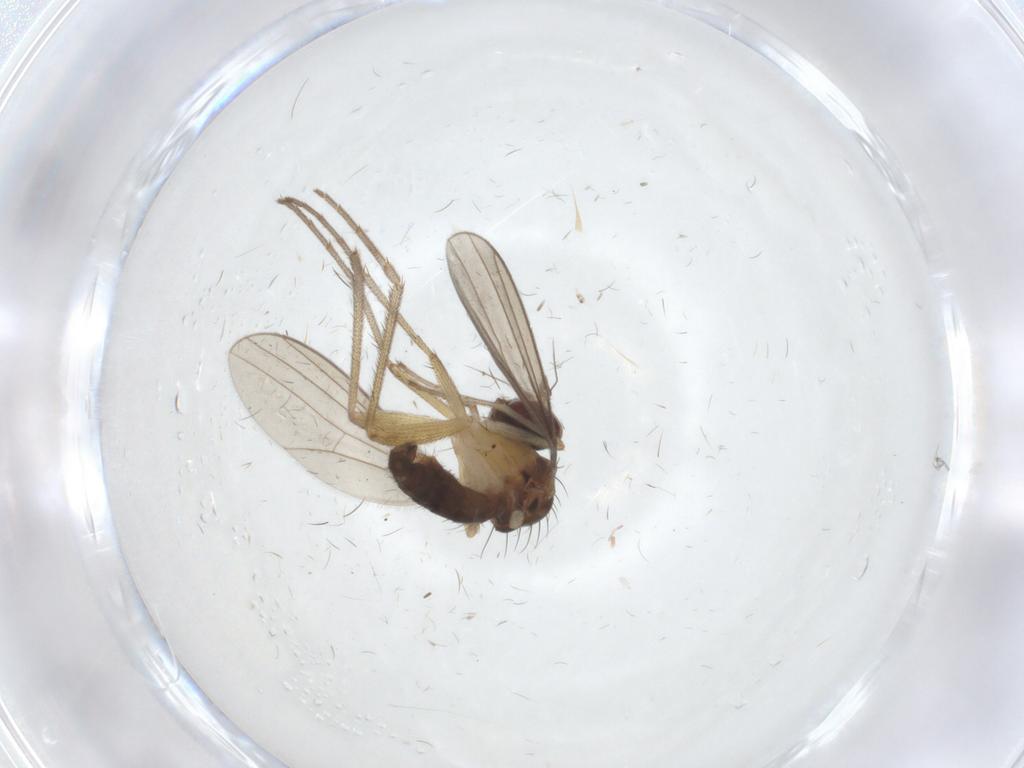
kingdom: Animalia
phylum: Arthropoda
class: Insecta
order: Diptera
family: Dolichopodidae
